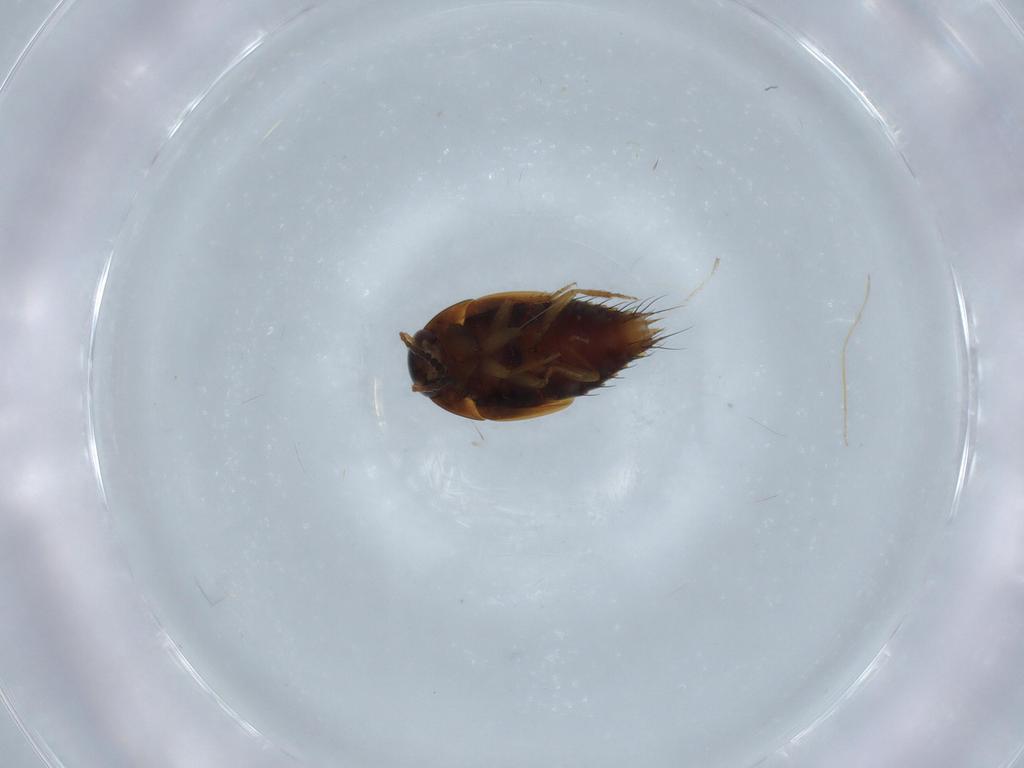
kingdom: Animalia
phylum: Arthropoda
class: Insecta
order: Coleoptera
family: Staphylinidae
